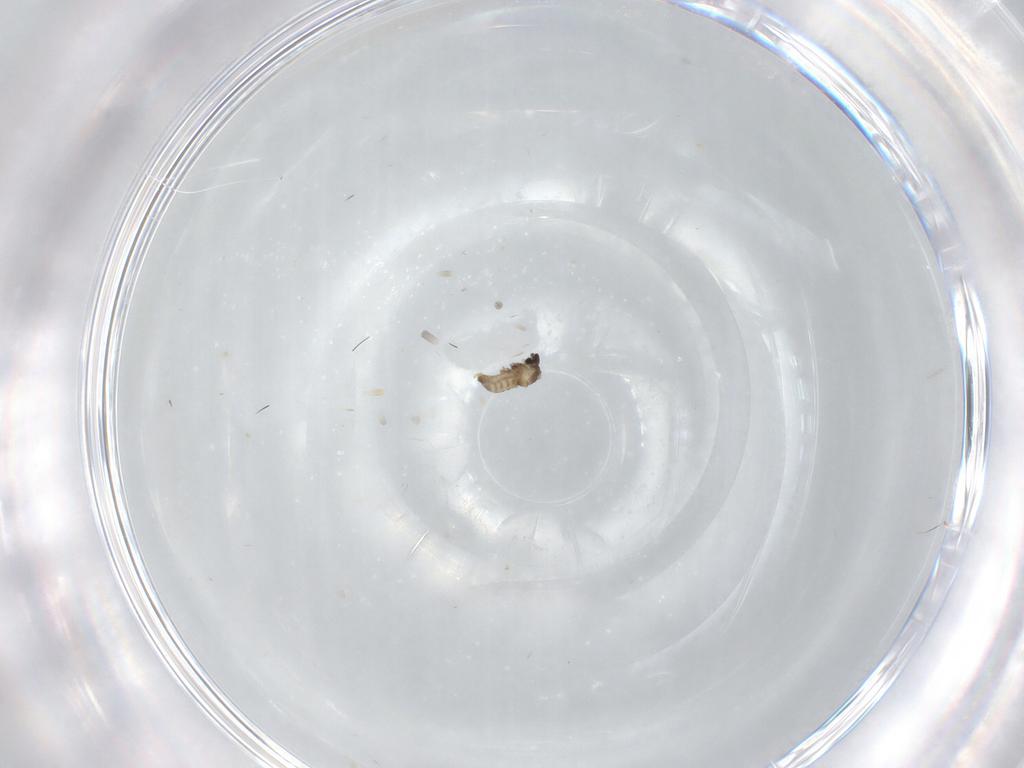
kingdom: Animalia
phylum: Arthropoda
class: Insecta
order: Diptera
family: Cecidomyiidae
